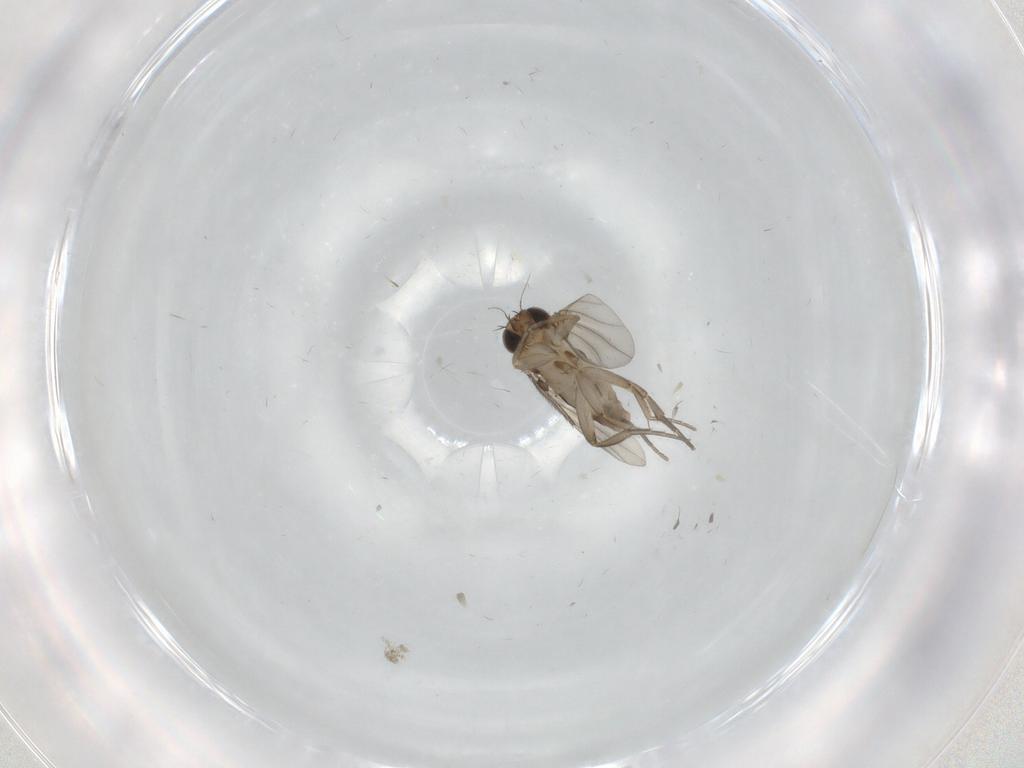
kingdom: Animalia
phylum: Arthropoda
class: Insecta
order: Diptera
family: Phoridae
